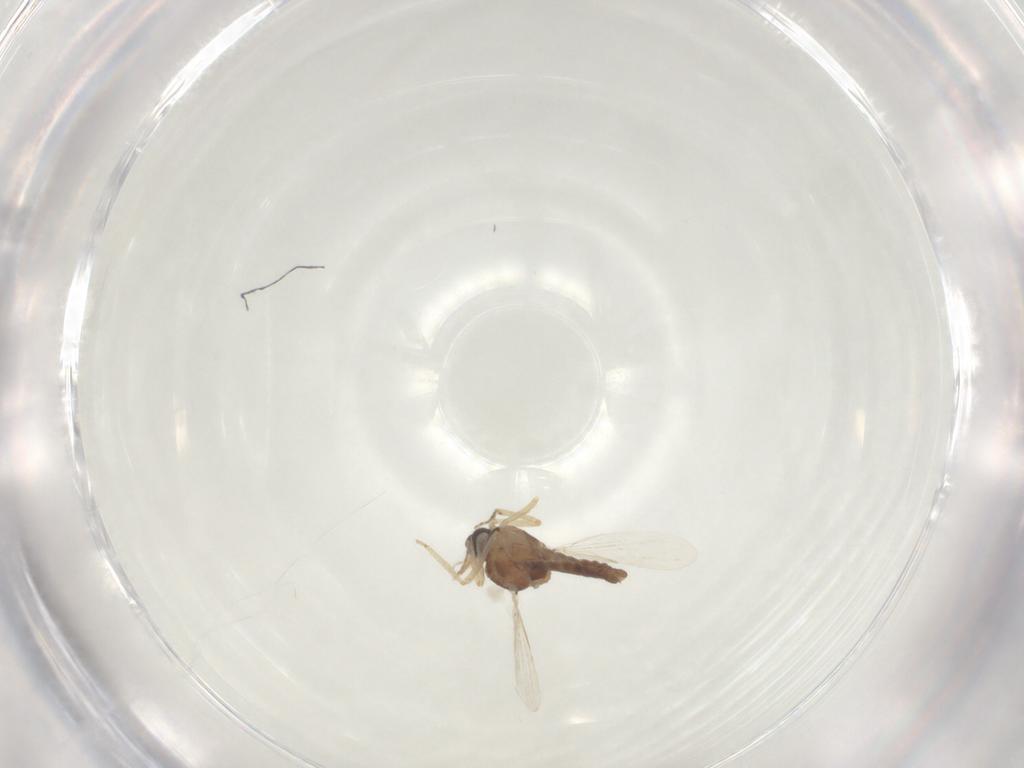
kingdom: Animalia
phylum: Arthropoda
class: Insecta
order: Diptera
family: Ceratopogonidae
